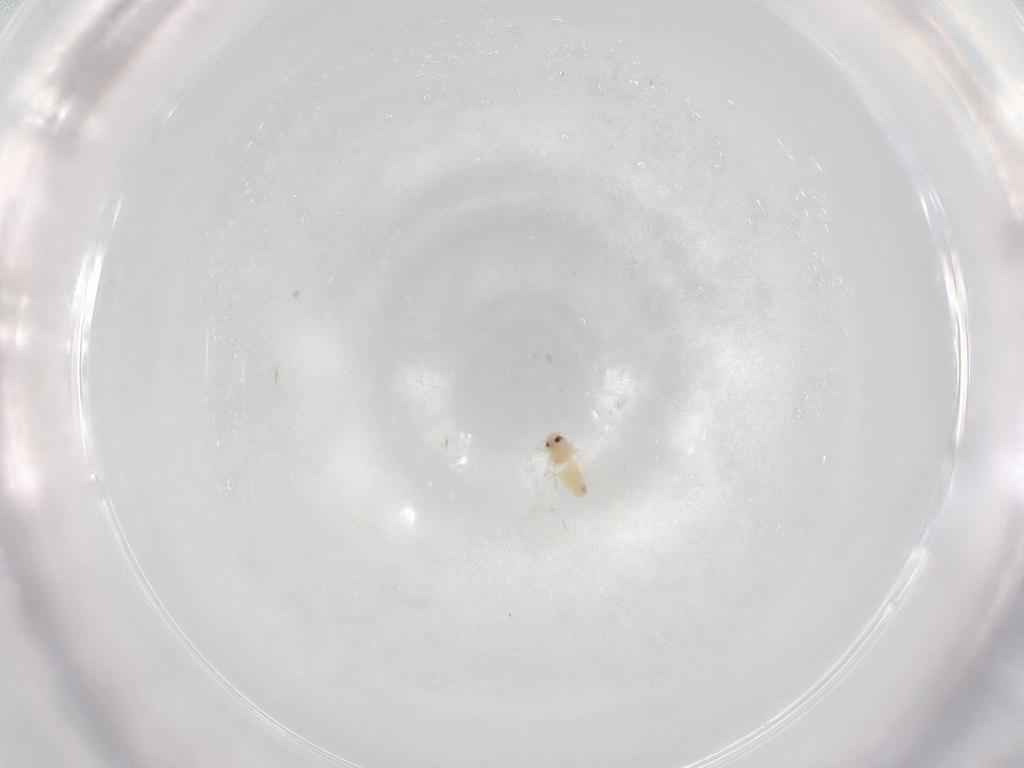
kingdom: Animalia
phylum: Arthropoda
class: Insecta
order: Hemiptera
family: Aleyrodidae
